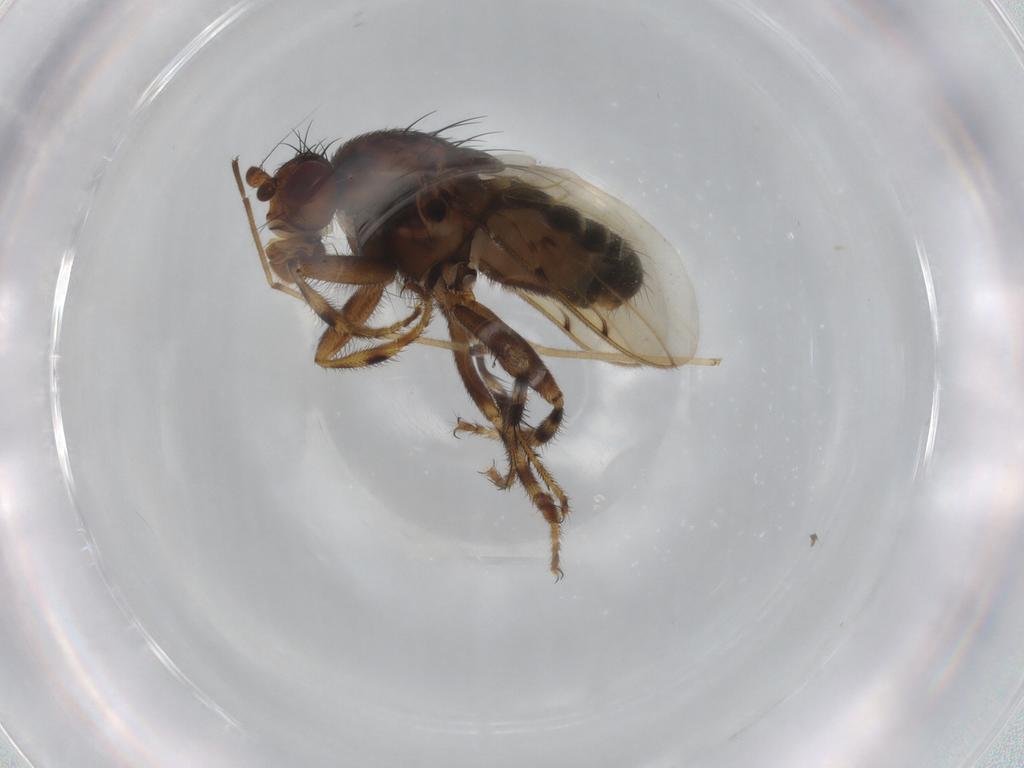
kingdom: Animalia
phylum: Arthropoda
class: Insecta
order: Diptera
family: Sphaeroceridae
